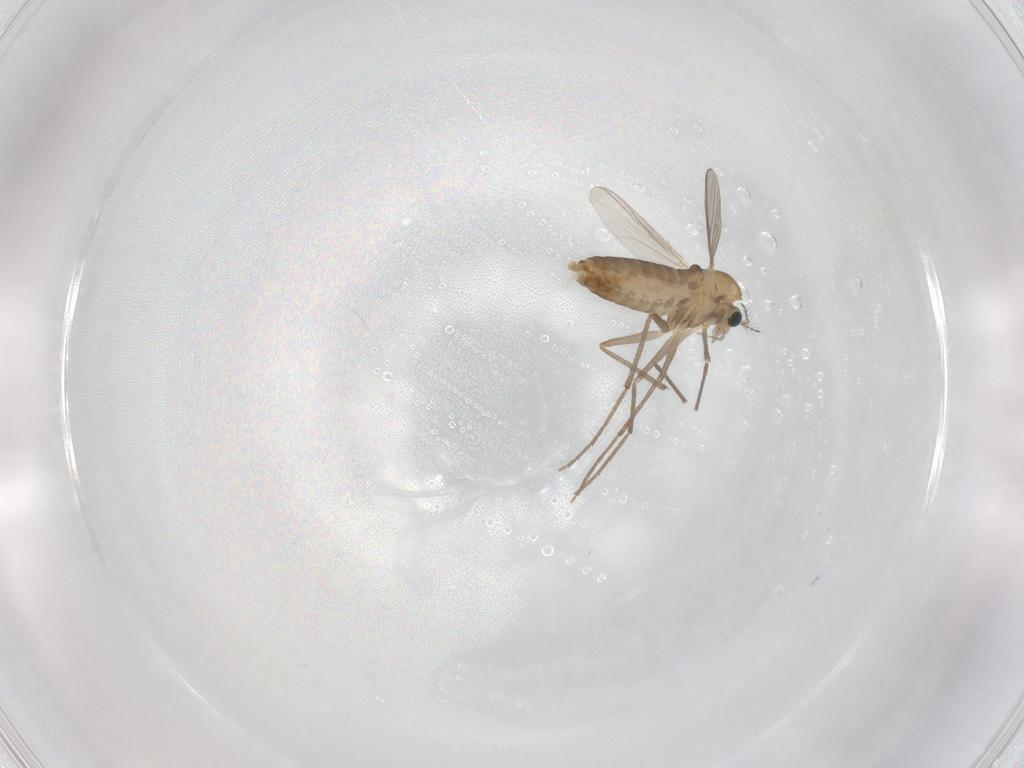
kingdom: Animalia
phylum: Arthropoda
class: Insecta
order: Diptera
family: Chironomidae
